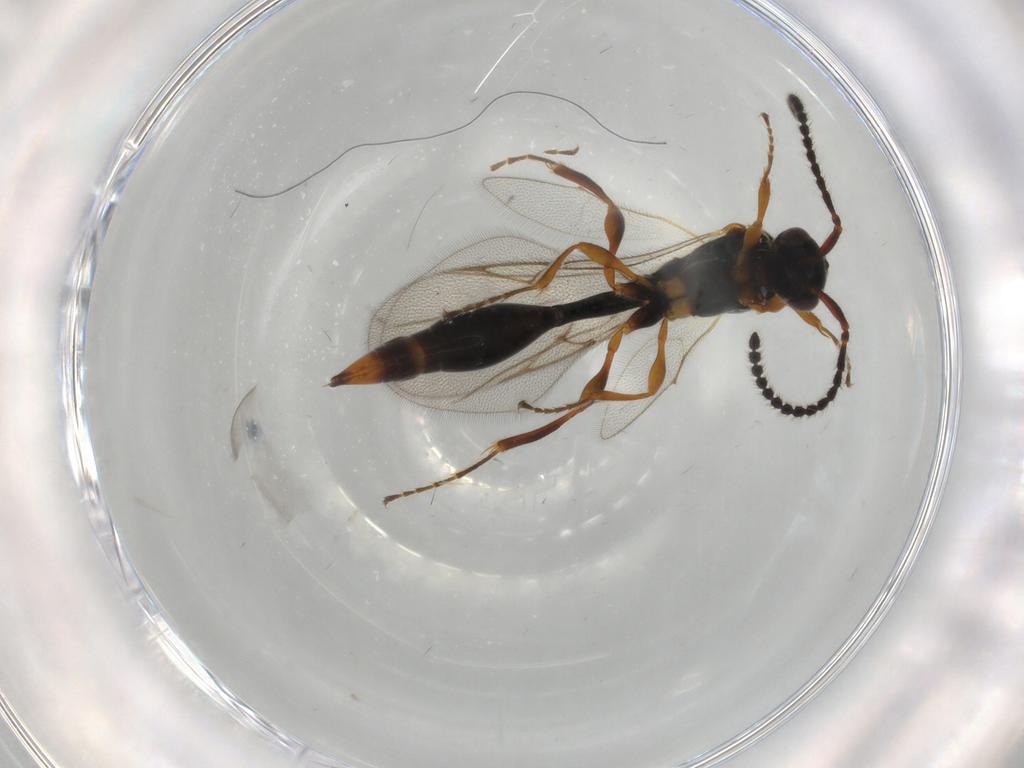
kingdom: Animalia
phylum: Arthropoda
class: Insecta
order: Hymenoptera
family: Diapriidae
